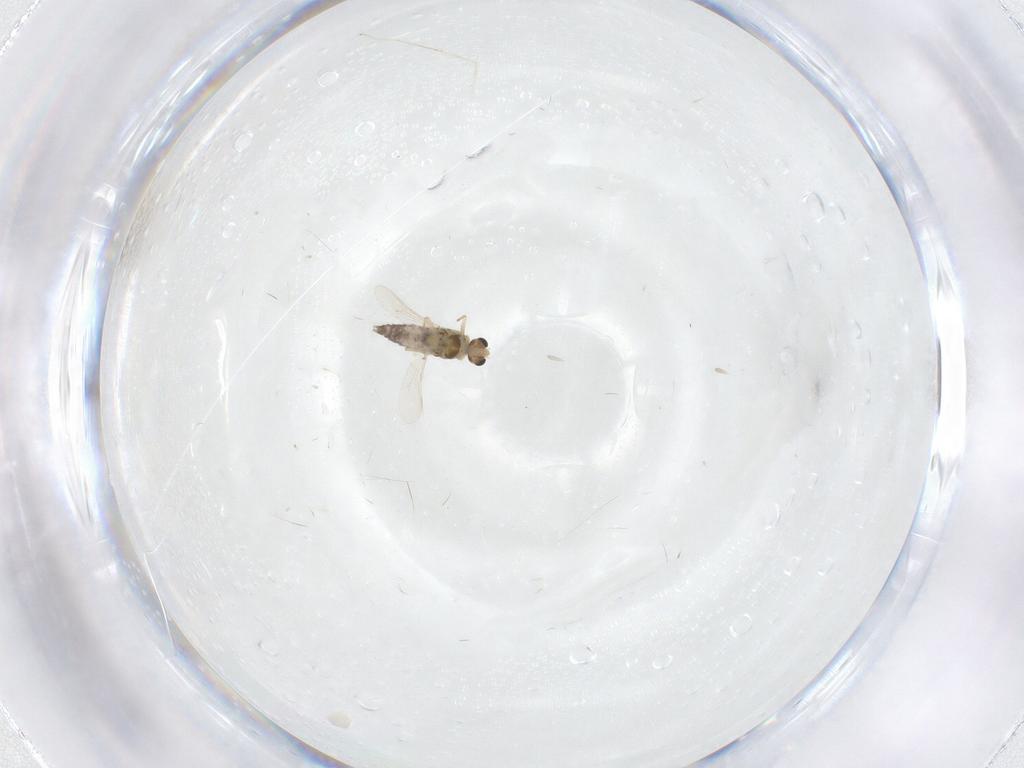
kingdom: Animalia
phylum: Arthropoda
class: Insecta
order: Diptera
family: Chironomidae
